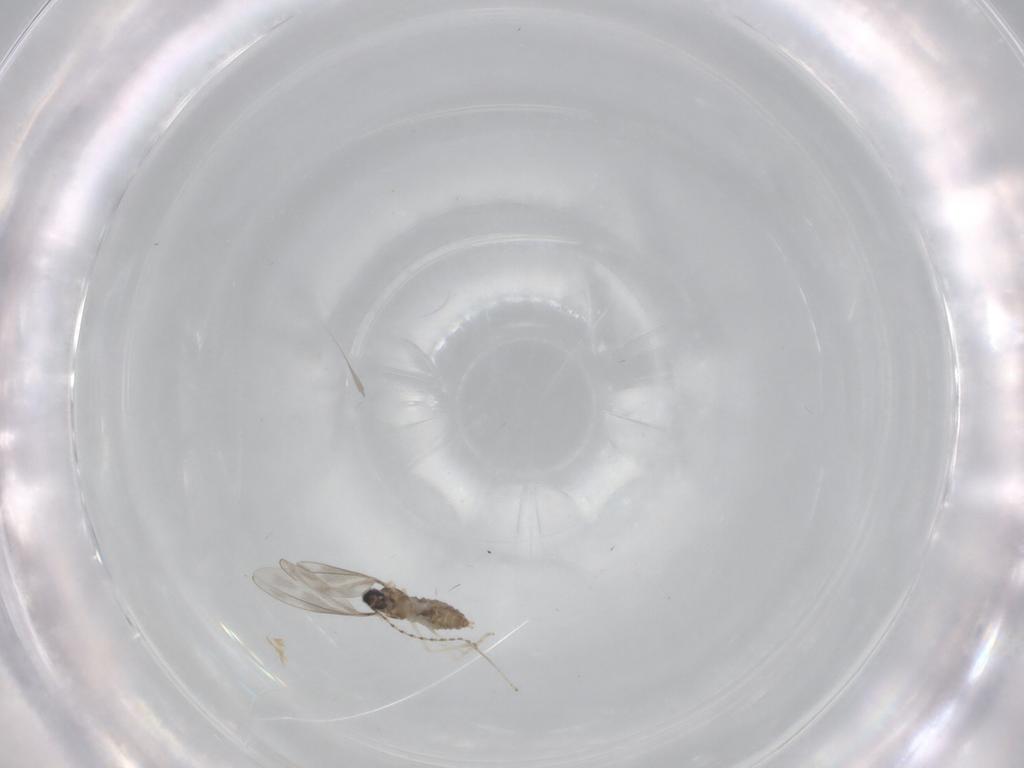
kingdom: Animalia
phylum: Arthropoda
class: Insecta
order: Diptera
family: Cecidomyiidae
